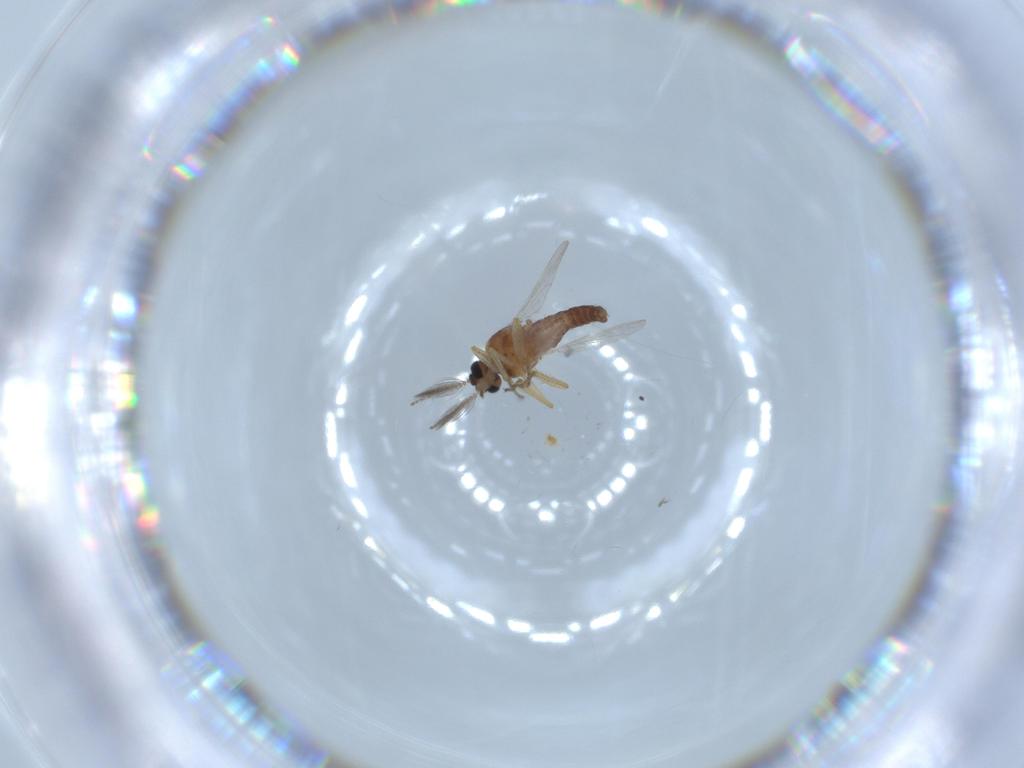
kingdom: Animalia
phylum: Arthropoda
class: Insecta
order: Diptera
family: Ceratopogonidae
